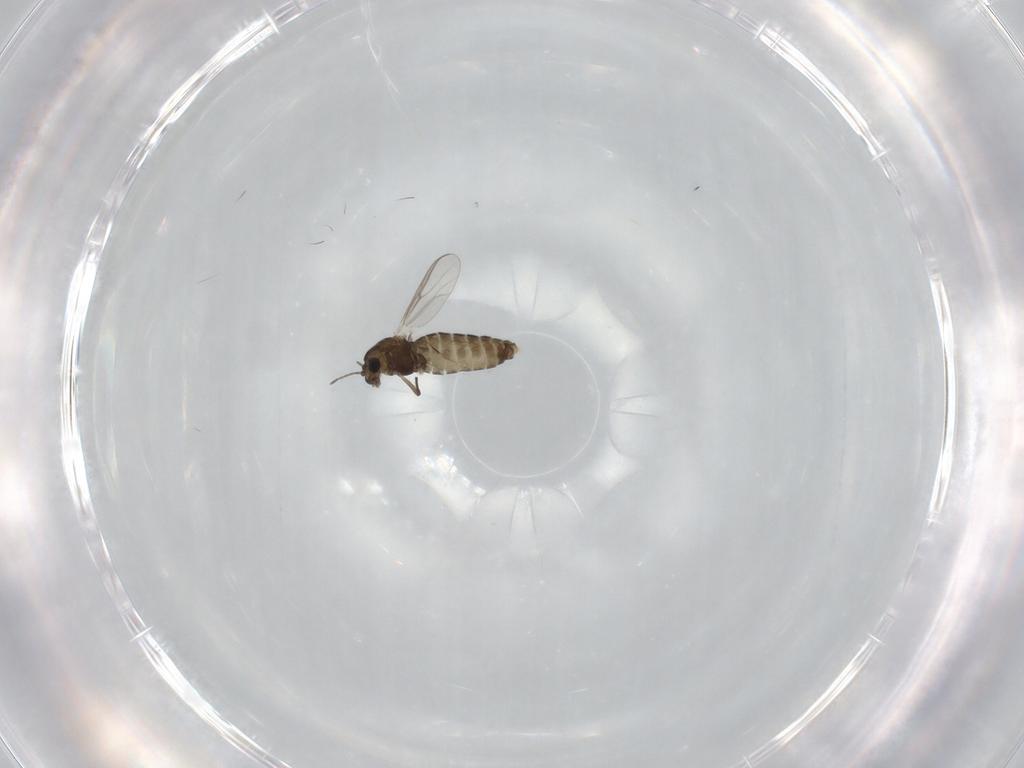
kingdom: Animalia
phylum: Arthropoda
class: Insecta
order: Diptera
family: Chironomidae
